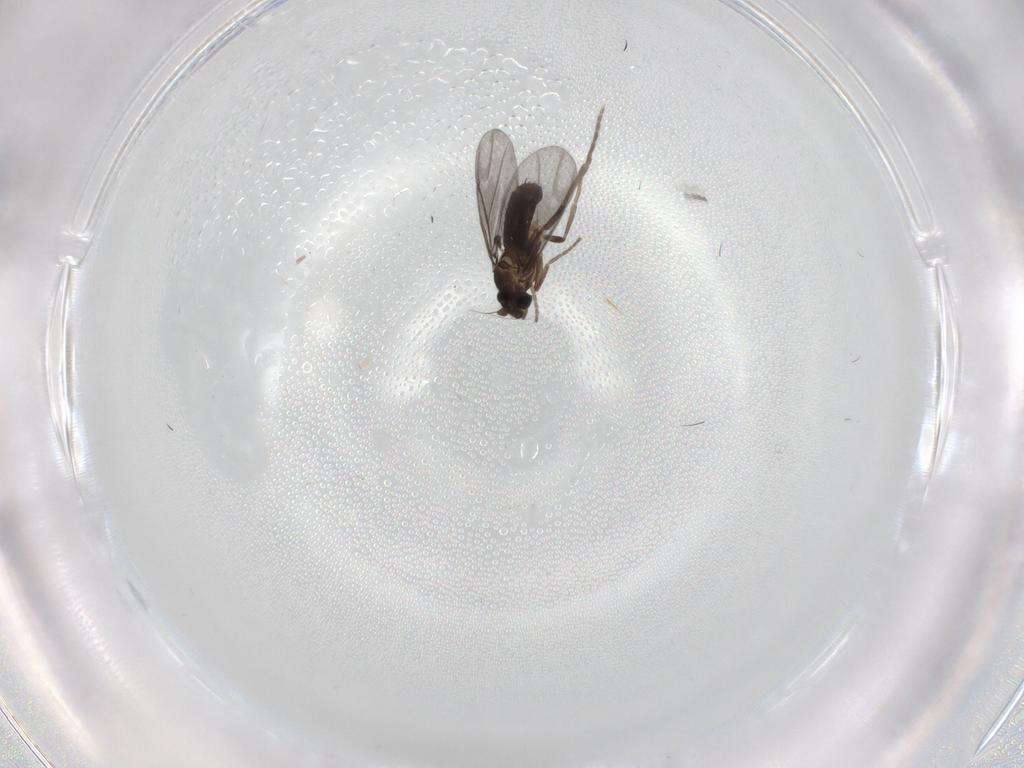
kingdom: Animalia
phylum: Arthropoda
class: Insecta
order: Diptera
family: Phoridae
